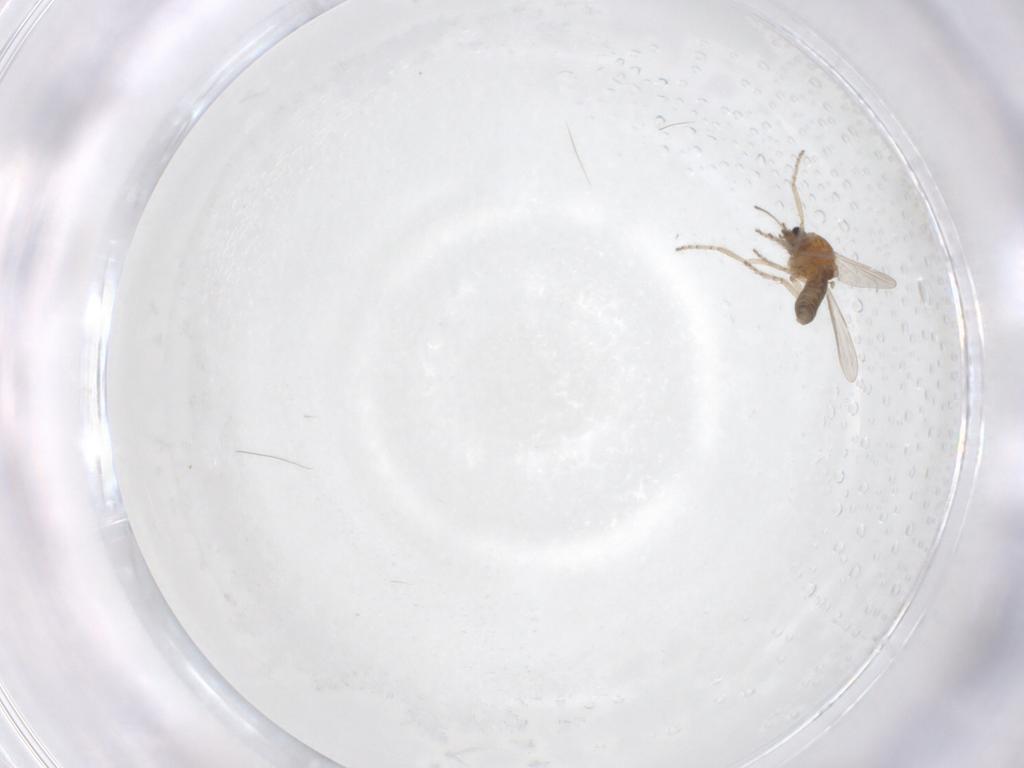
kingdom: Animalia
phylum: Arthropoda
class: Insecta
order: Diptera
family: Ceratopogonidae
